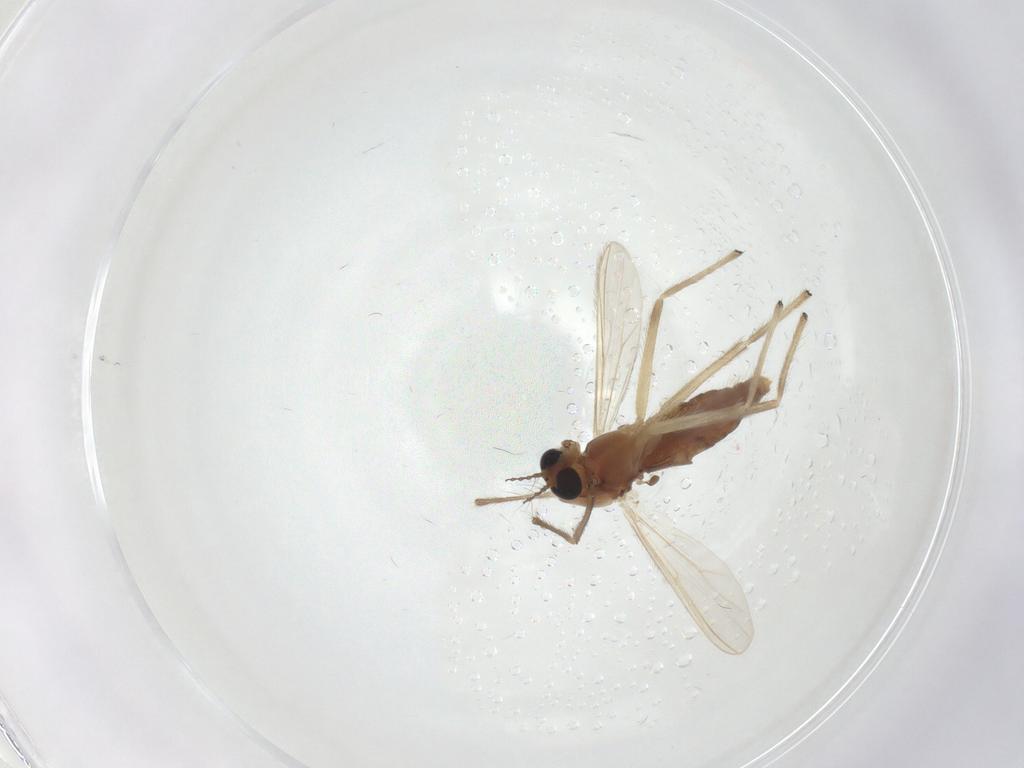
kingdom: Animalia
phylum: Arthropoda
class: Insecta
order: Diptera
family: Chironomidae
